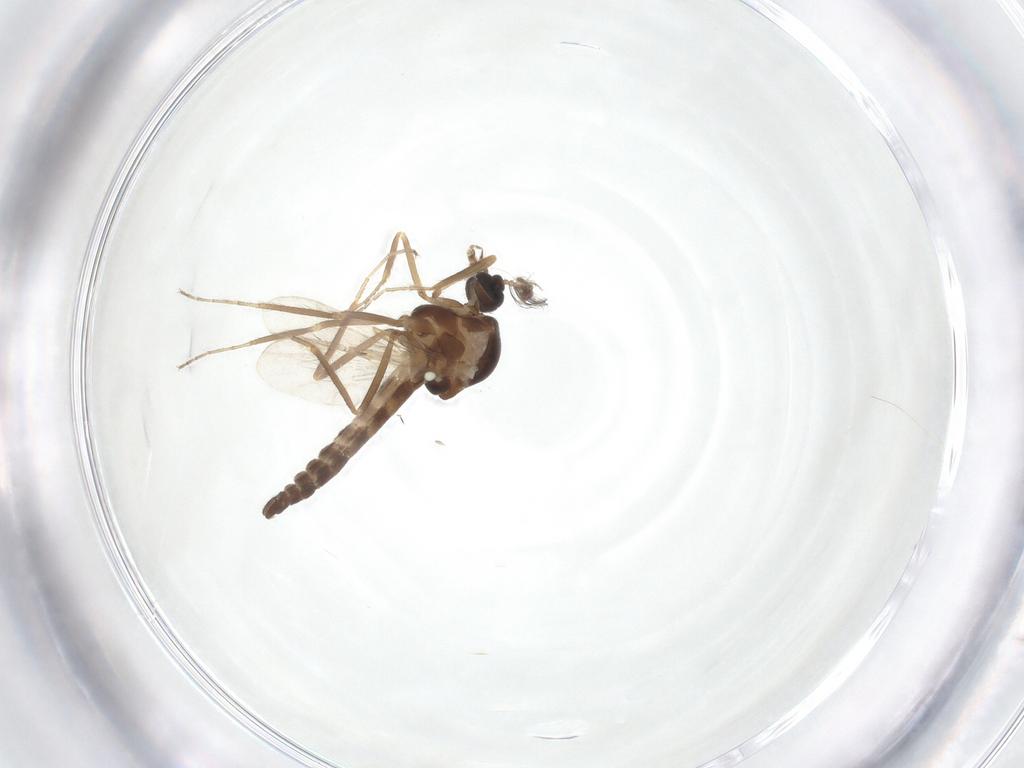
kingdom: Animalia
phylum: Arthropoda
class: Insecta
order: Diptera
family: Ceratopogonidae
